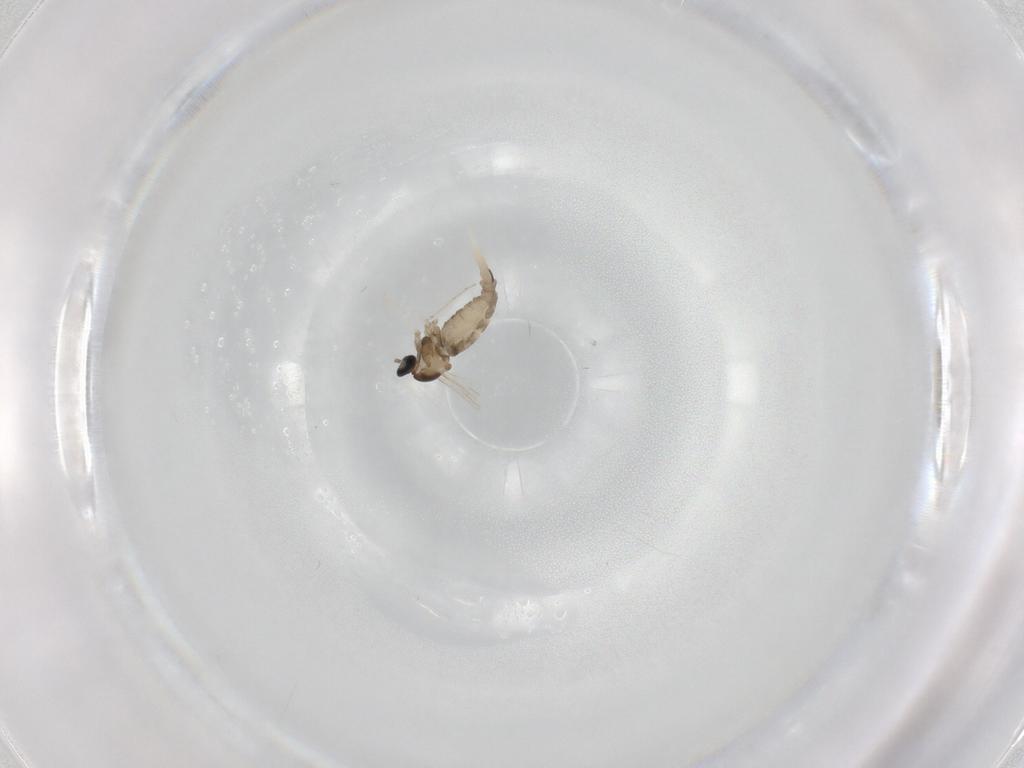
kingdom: Animalia
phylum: Arthropoda
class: Insecta
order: Diptera
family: Cecidomyiidae
